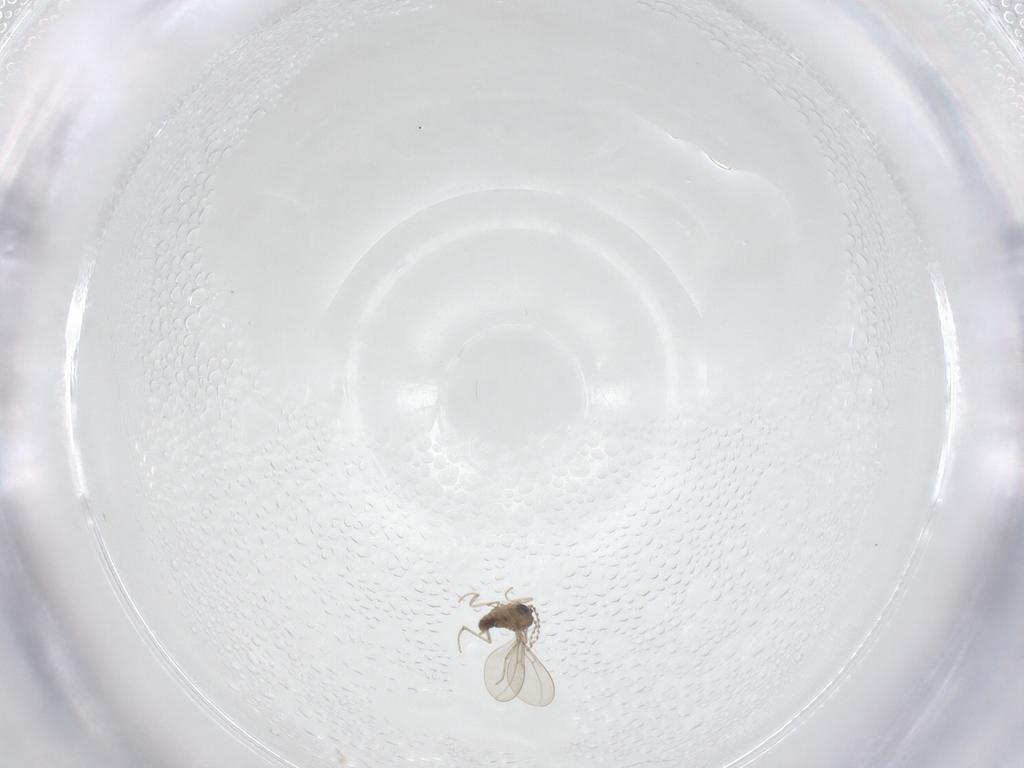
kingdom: Animalia
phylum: Arthropoda
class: Insecta
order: Diptera
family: Cecidomyiidae
